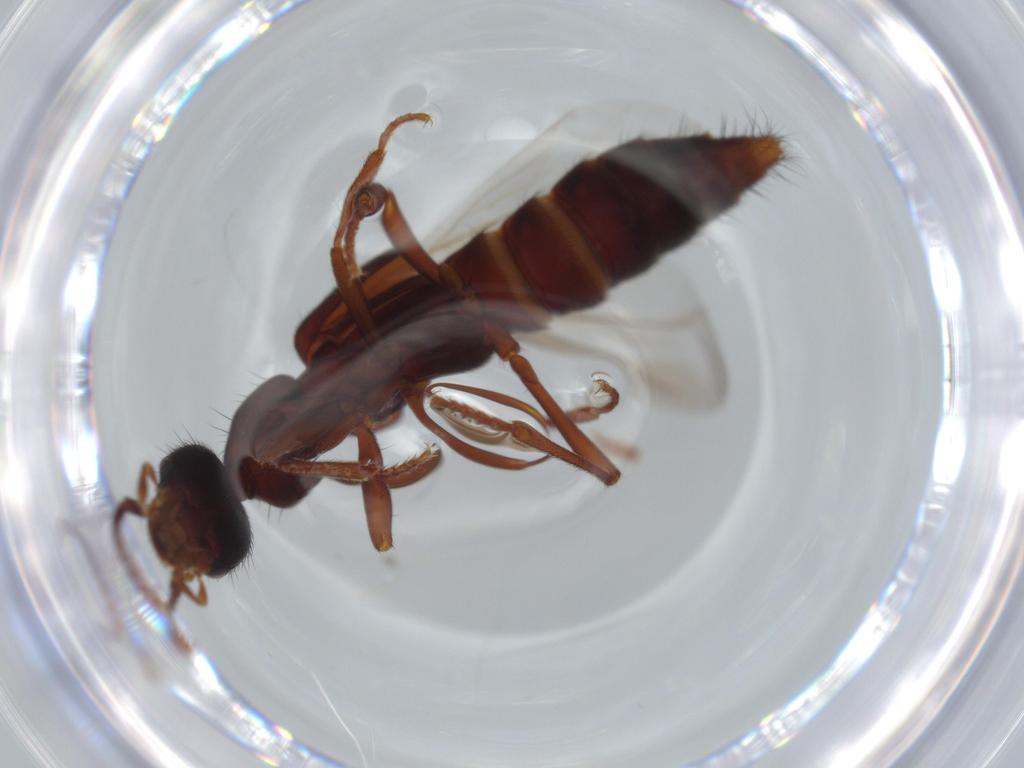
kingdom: Animalia
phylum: Arthropoda
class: Insecta
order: Coleoptera
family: Staphylinidae
